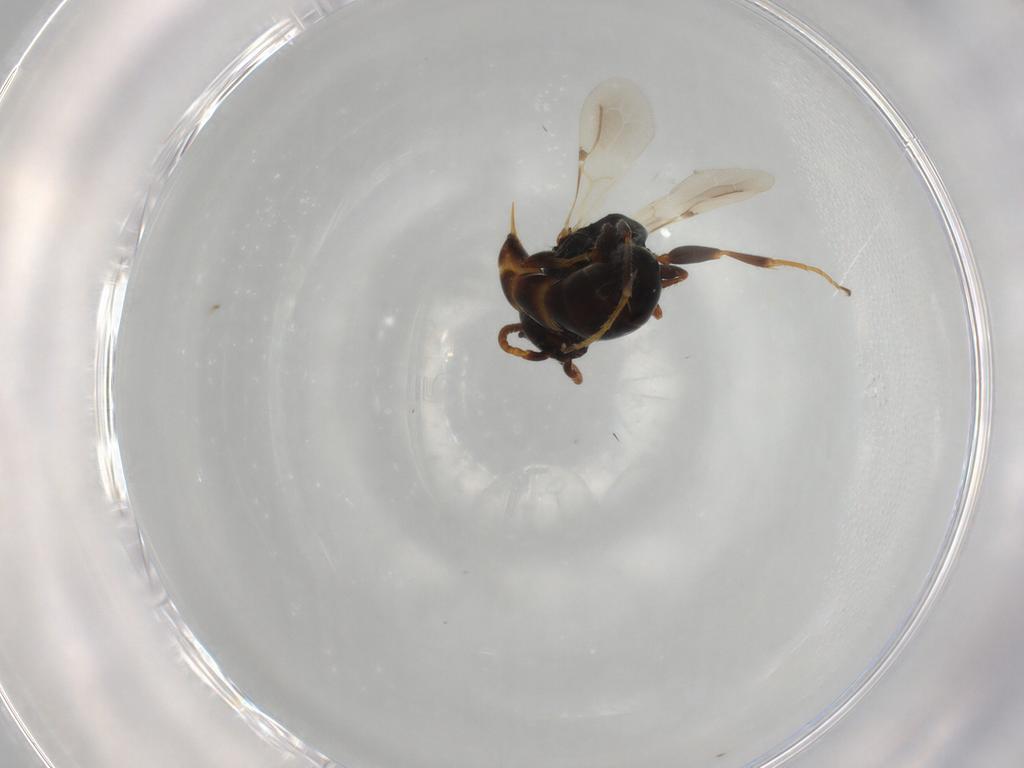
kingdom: Animalia
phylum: Arthropoda
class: Insecta
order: Hymenoptera
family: Bethylidae
